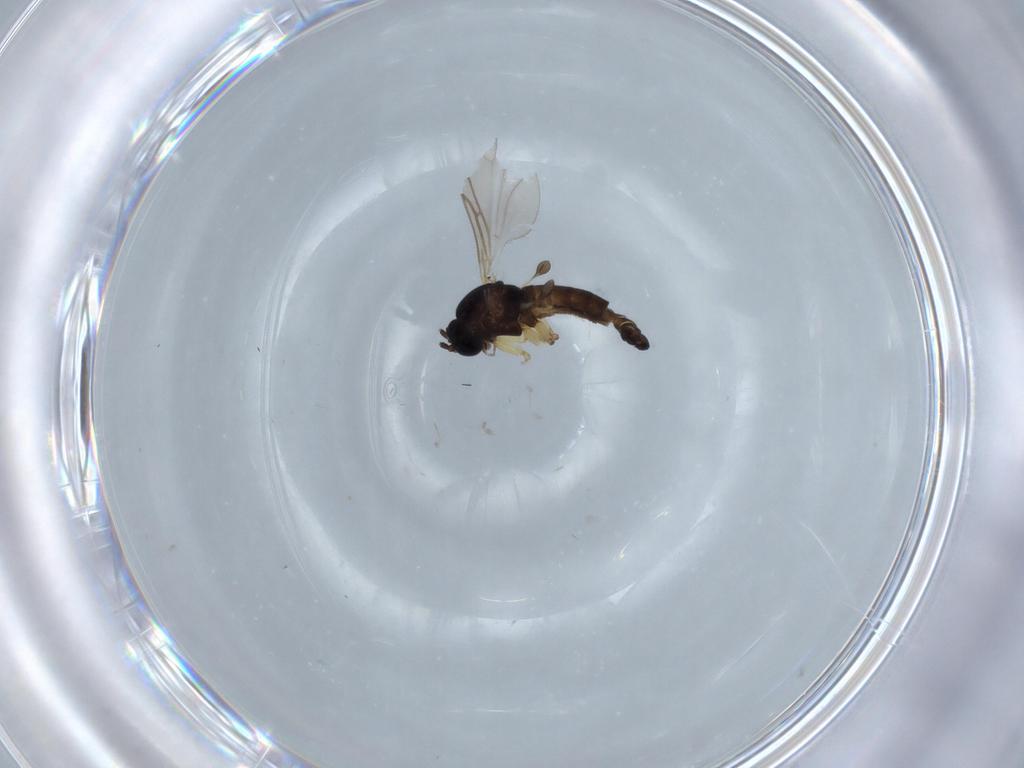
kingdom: Animalia
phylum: Arthropoda
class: Insecta
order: Diptera
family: Sciaridae
